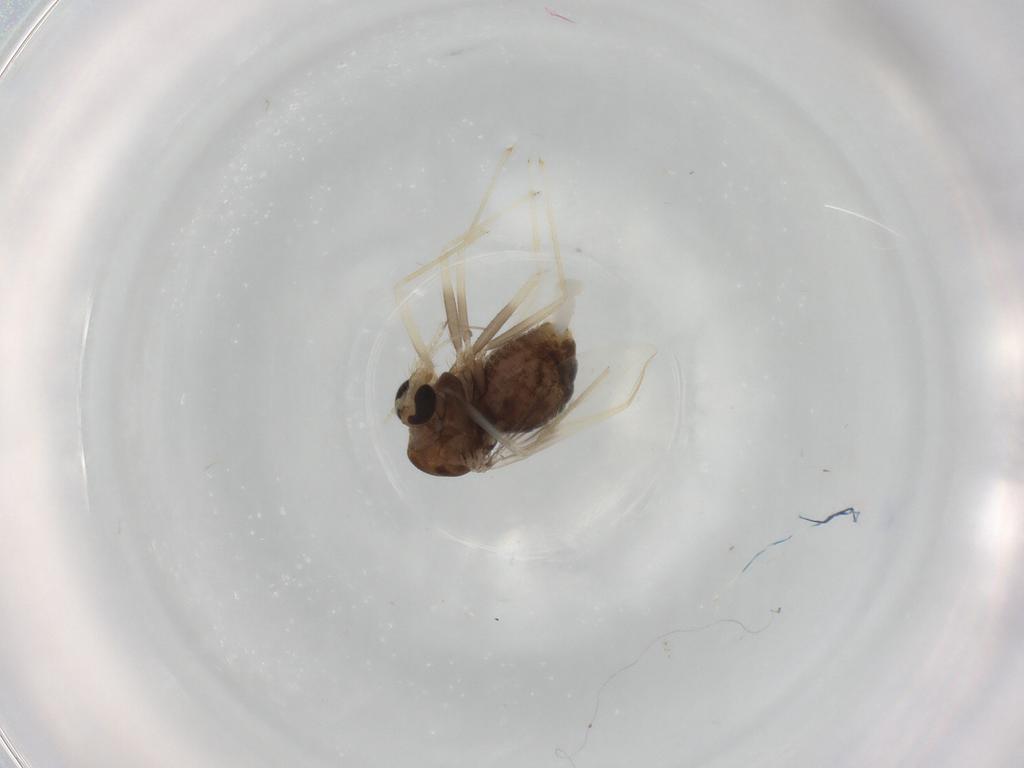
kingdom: Animalia
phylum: Arthropoda
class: Insecta
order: Diptera
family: Chironomidae
